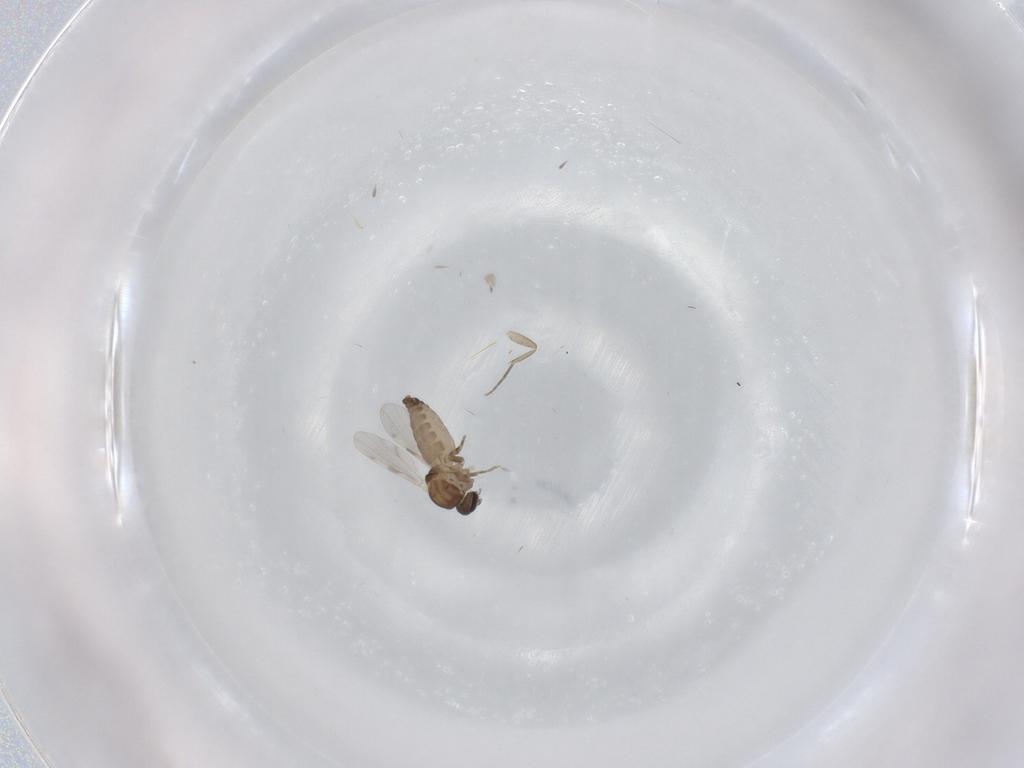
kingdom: Animalia
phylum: Arthropoda
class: Insecta
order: Diptera
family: Ceratopogonidae
